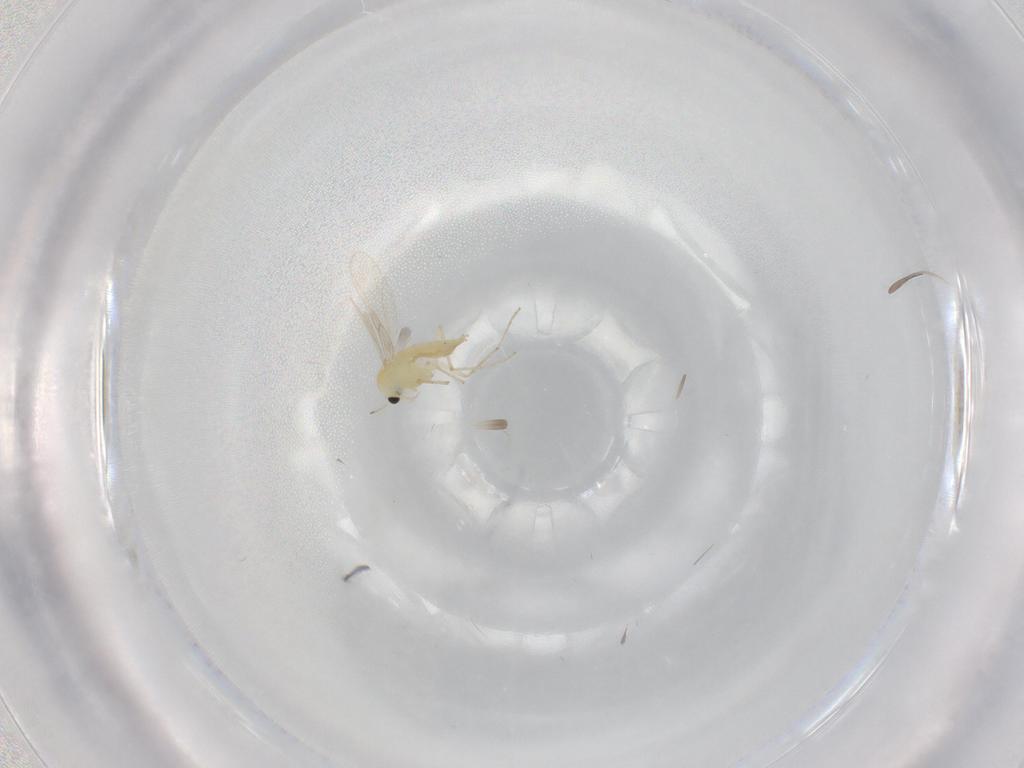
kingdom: Animalia
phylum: Arthropoda
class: Insecta
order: Diptera
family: Chironomidae
